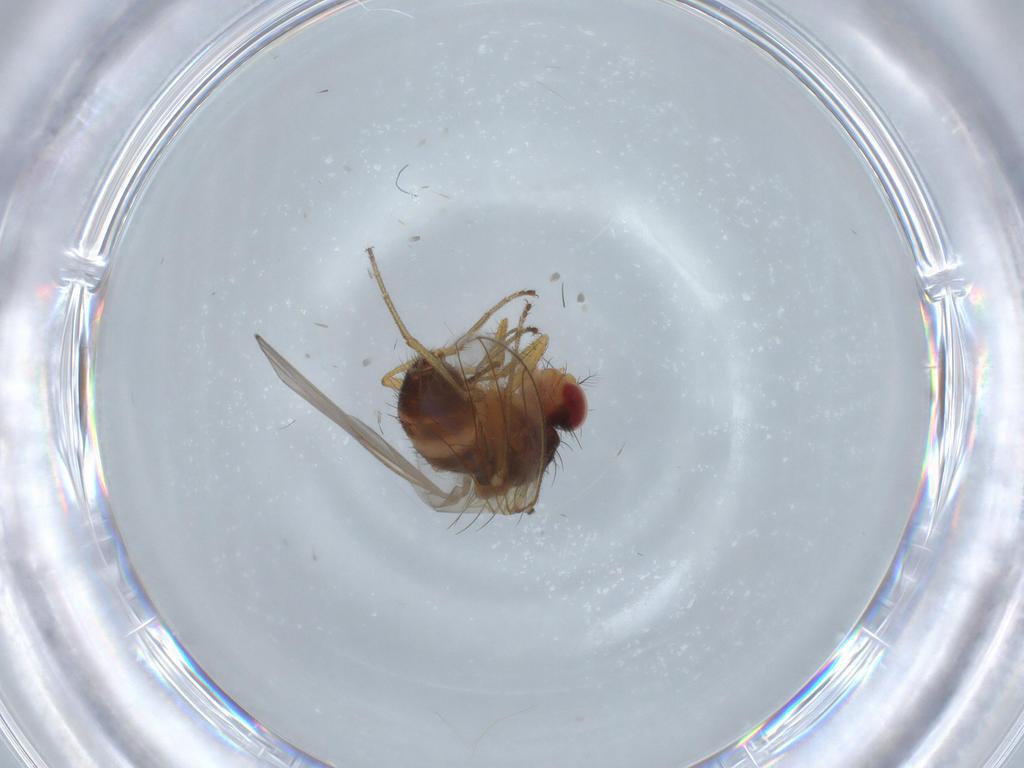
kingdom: Animalia
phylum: Arthropoda
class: Insecta
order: Diptera
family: Drosophilidae
